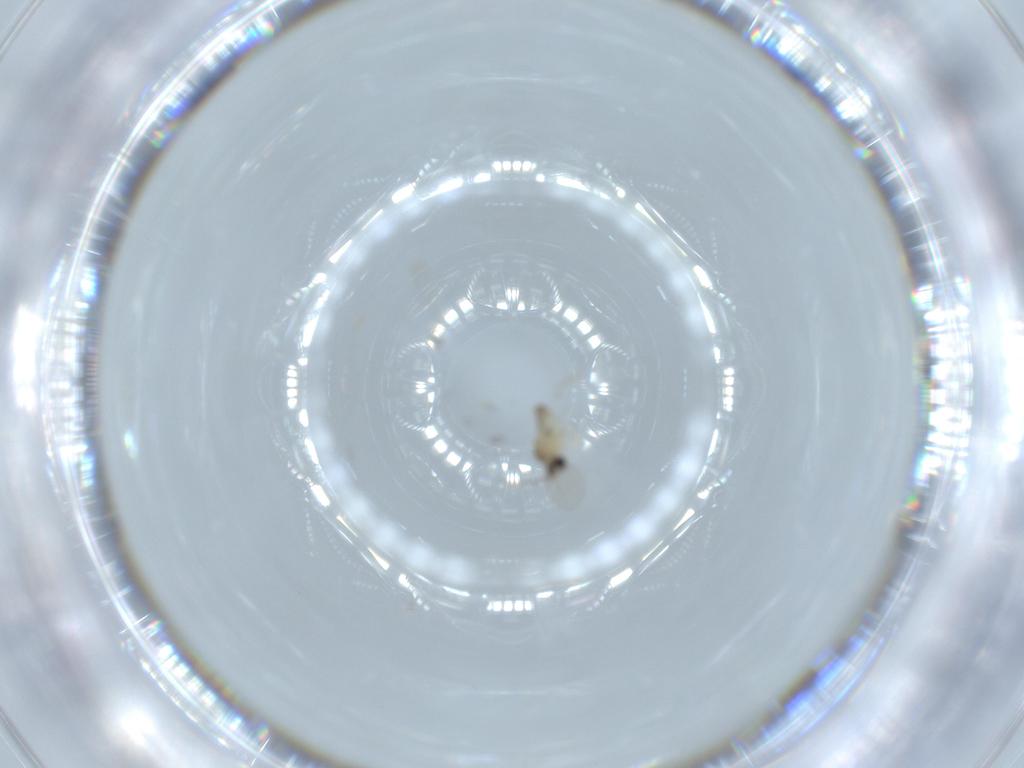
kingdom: Animalia
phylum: Arthropoda
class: Insecta
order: Diptera
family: Cecidomyiidae
